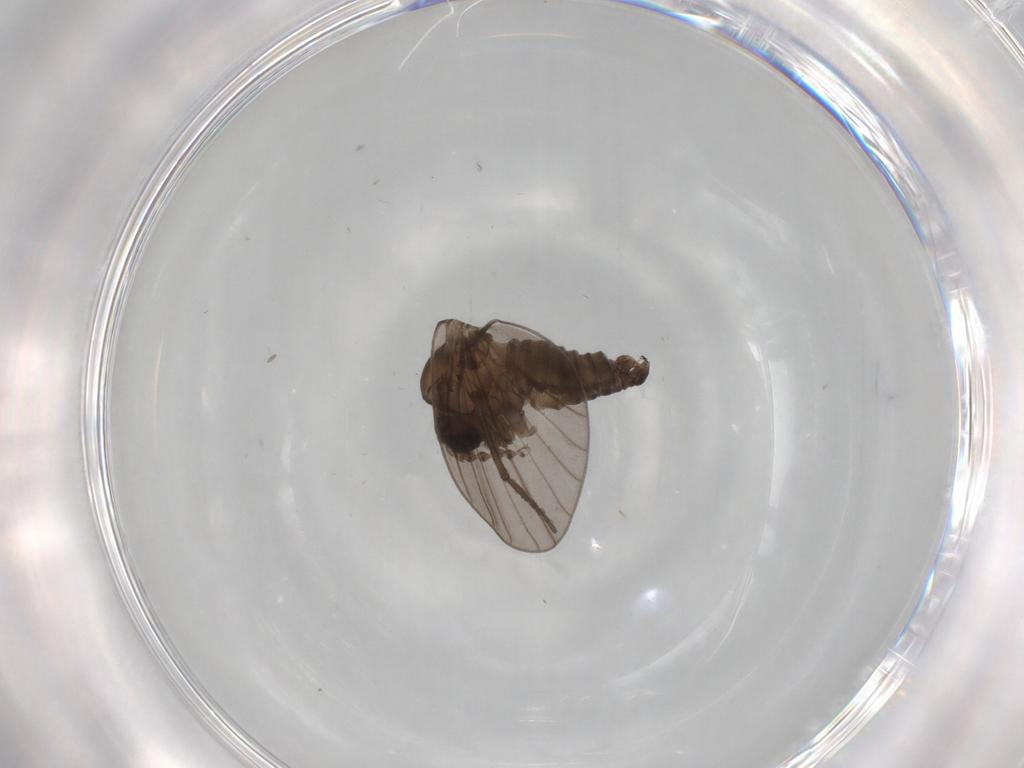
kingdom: Animalia
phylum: Arthropoda
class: Insecta
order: Diptera
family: Psychodidae
